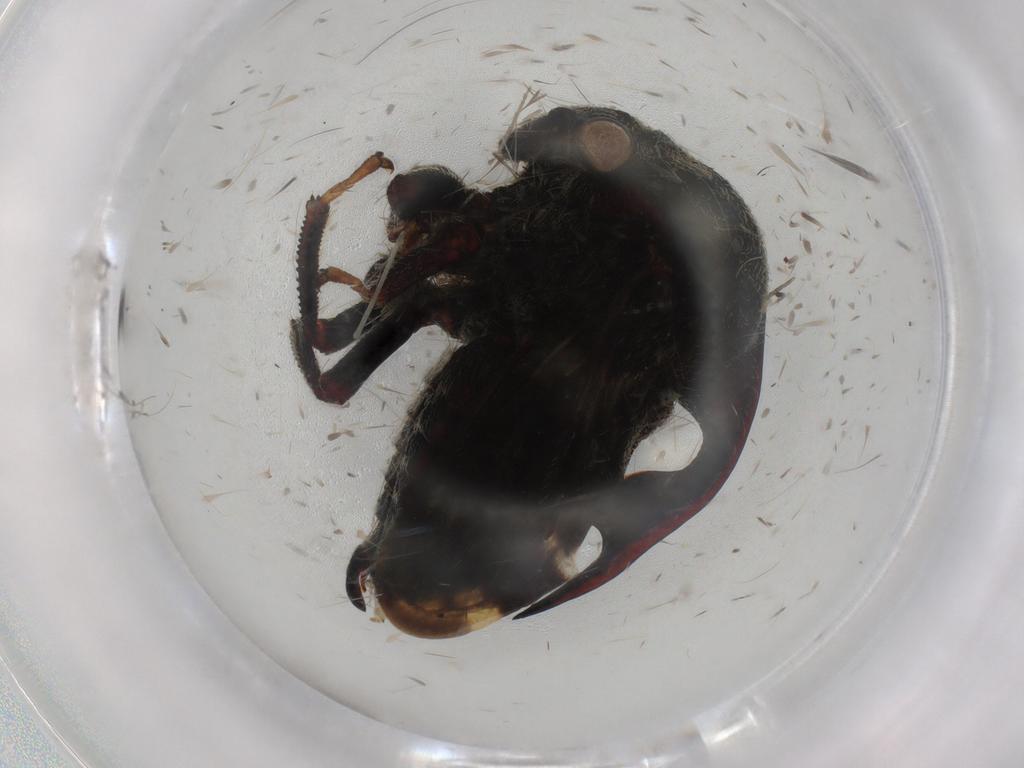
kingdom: Animalia
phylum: Arthropoda
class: Insecta
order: Hemiptera
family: Membracidae
